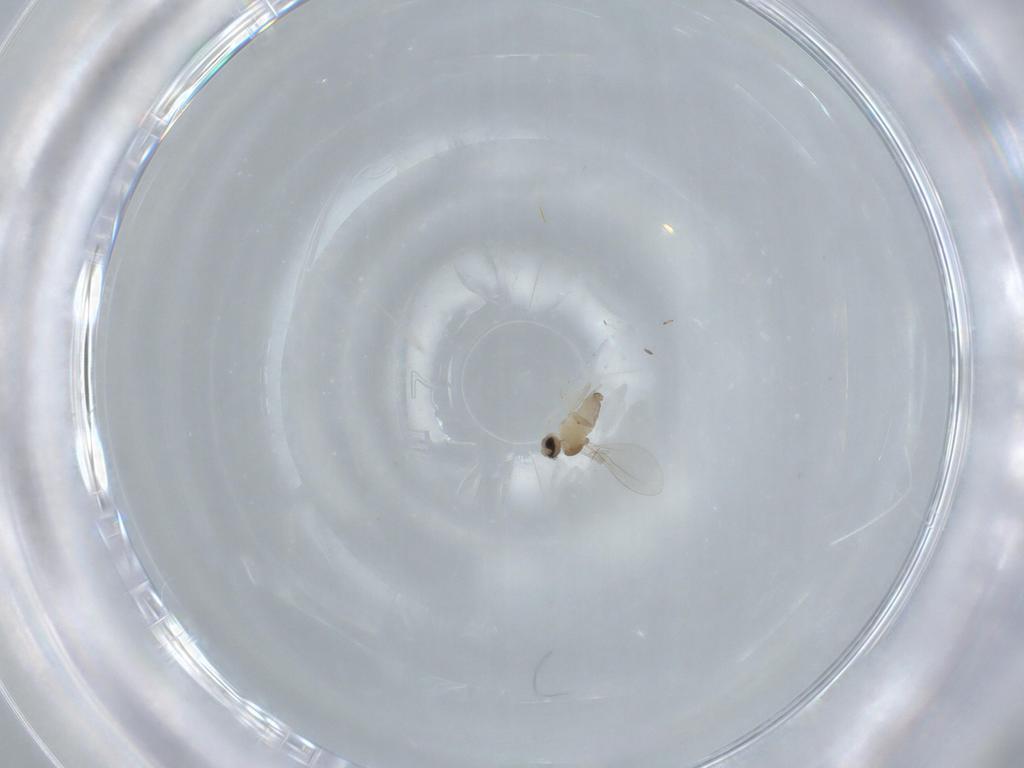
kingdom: Animalia
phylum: Arthropoda
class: Insecta
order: Diptera
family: Cecidomyiidae
